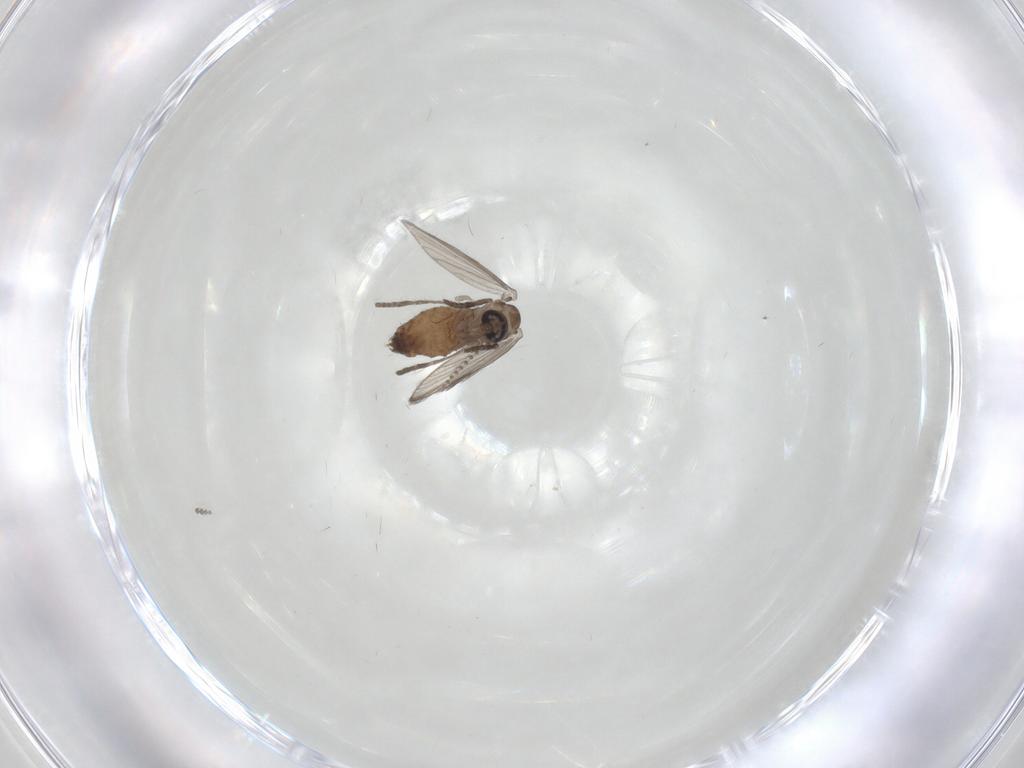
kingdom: Animalia
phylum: Arthropoda
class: Insecta
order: Diptera
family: Psychodidae
